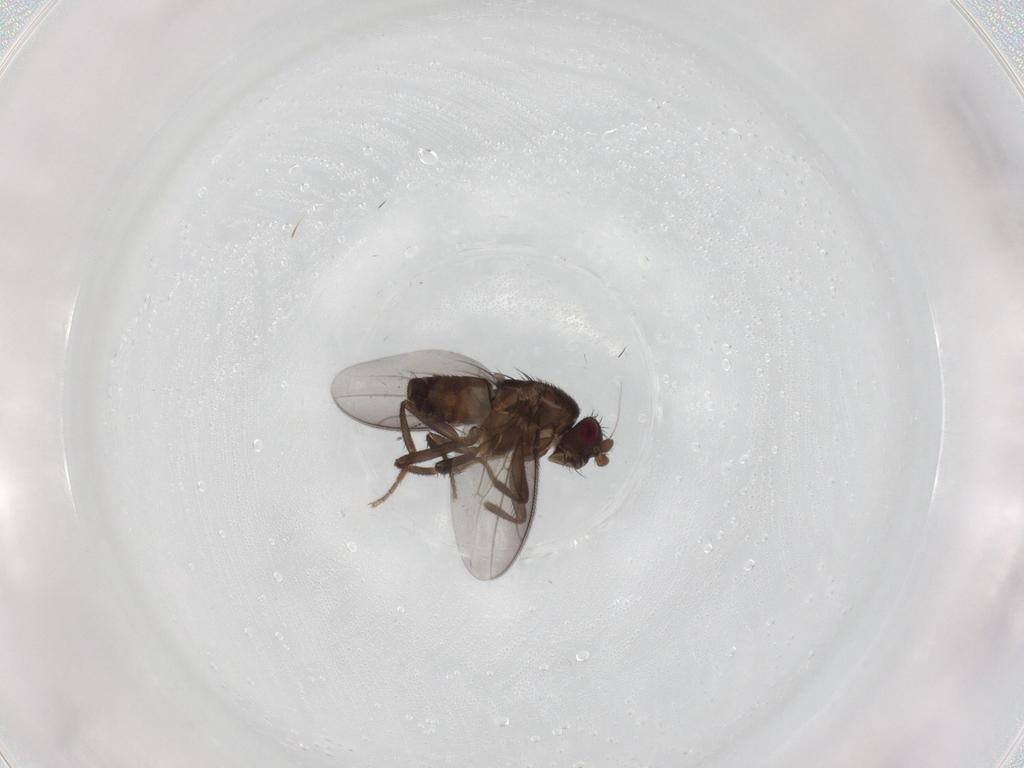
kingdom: Animalia
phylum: Arthropoda
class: Insecta
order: Diptera
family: Sphaeroceridae
